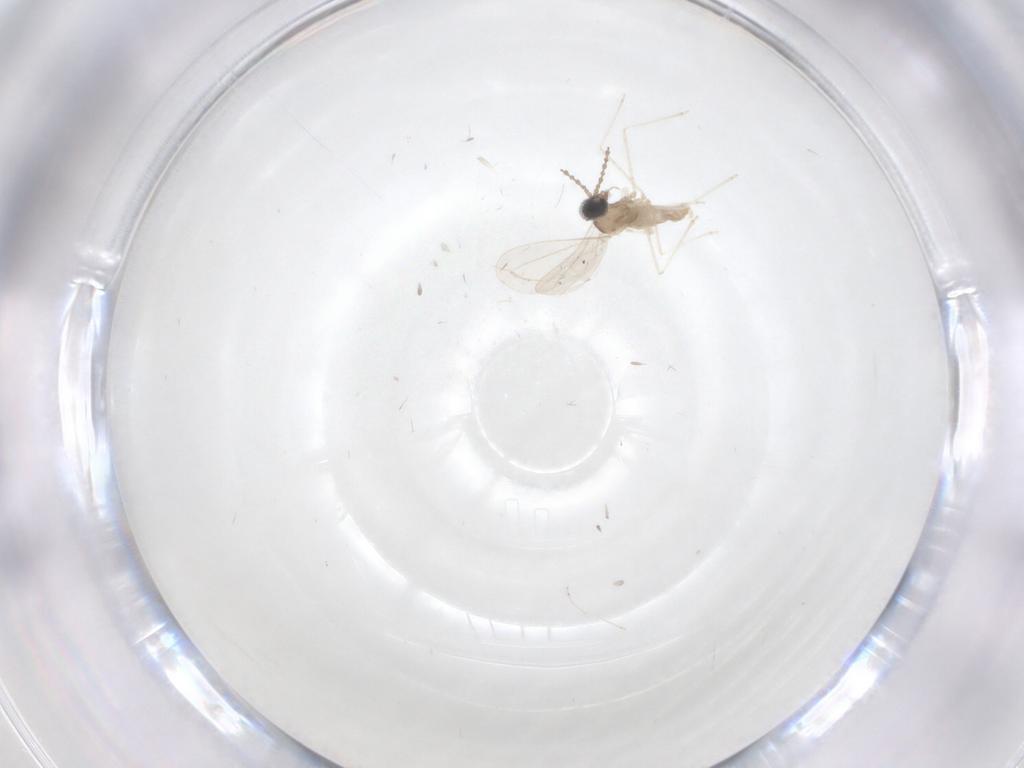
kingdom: Animalia
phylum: Arthropoda
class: Insecta
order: Diptera
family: Cecidomyiidae
